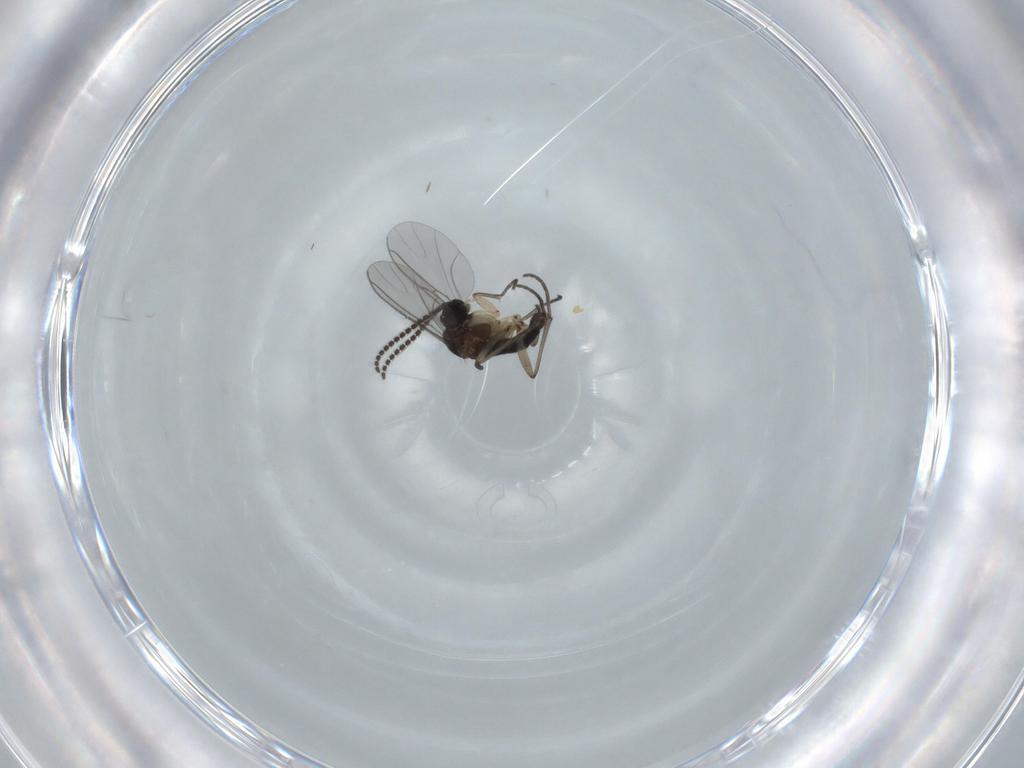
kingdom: Animalia
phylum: Arthropoda
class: Insecta
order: Diptera
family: Sciaridae
